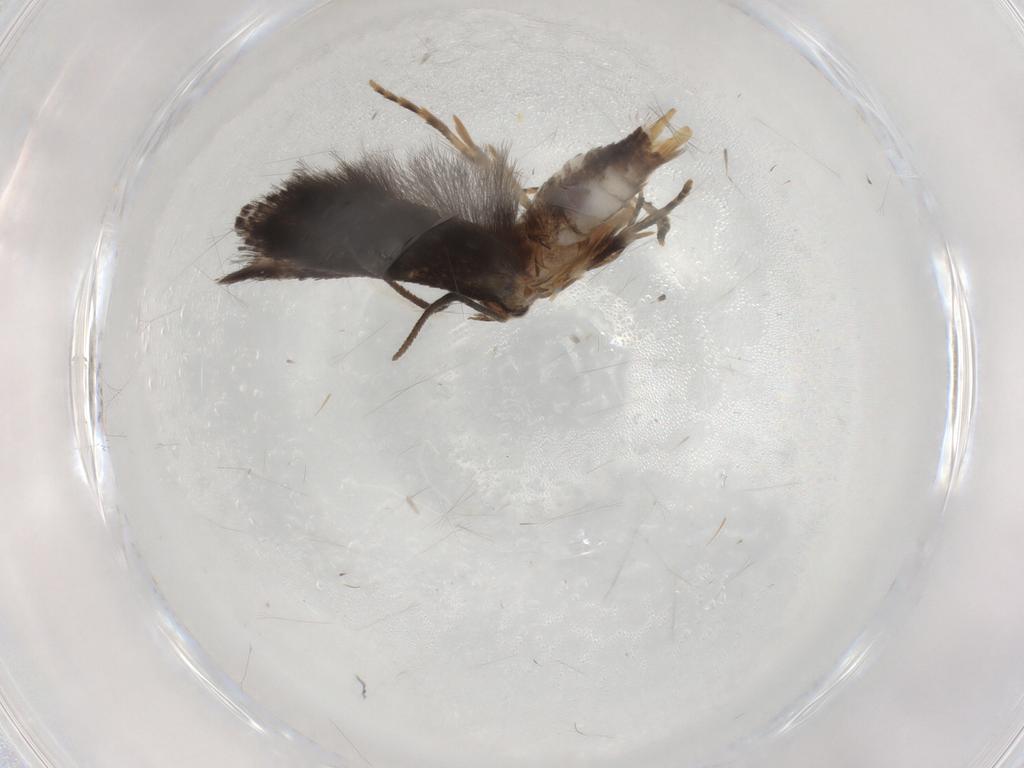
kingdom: Animalia
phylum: Arthropoda
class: Insecta
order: Lepidoptera
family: Elachistidae
